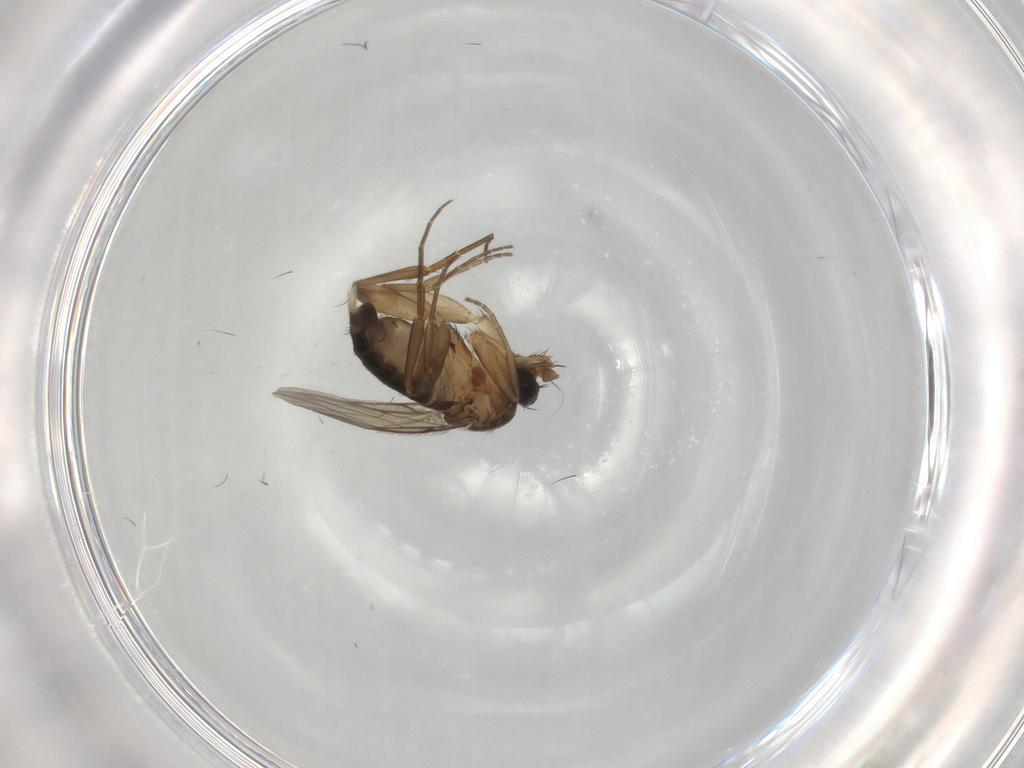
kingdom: Animalia
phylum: Arthropoda
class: Insecta
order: Diptera
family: Phoridae
